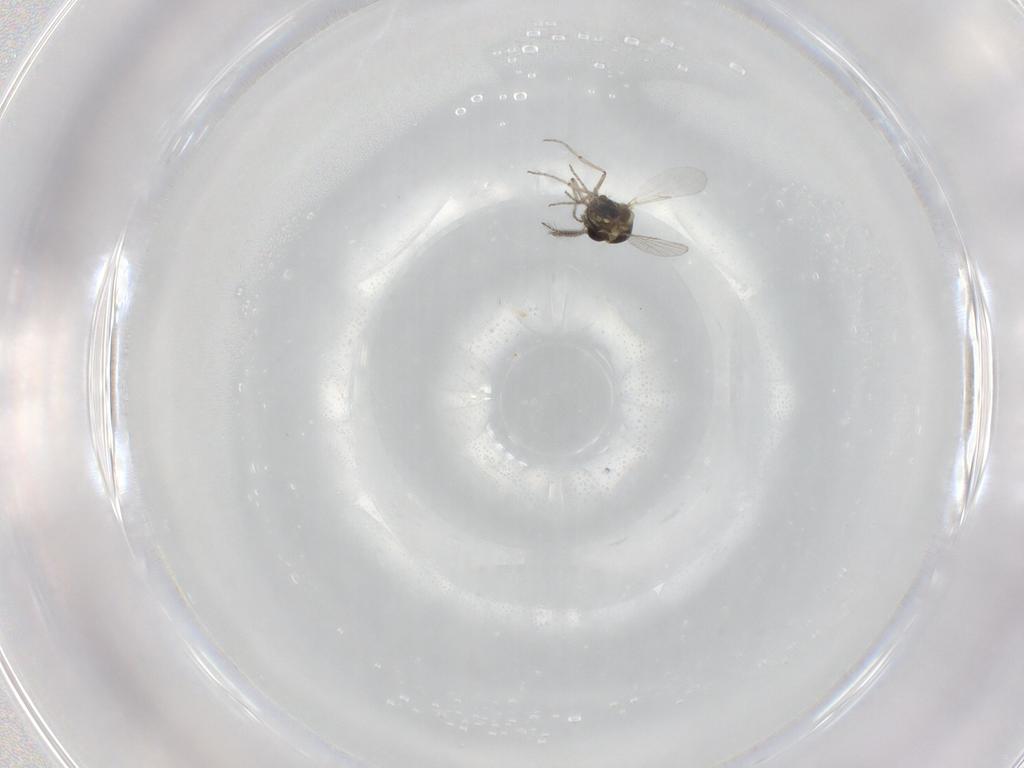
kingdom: Animalia
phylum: Arthropoda
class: Insecta
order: Diptera
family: Ceratopogonidae
